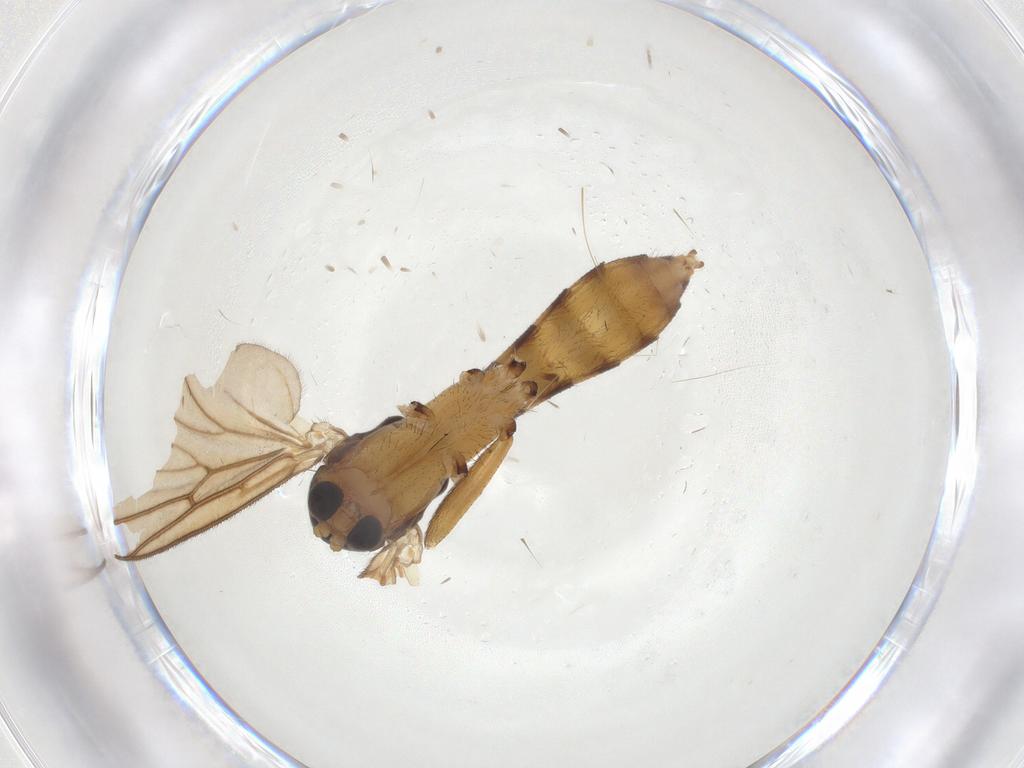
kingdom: Animalia
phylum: Arthropoda
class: Insecta
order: Diptera
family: Mycetophilidae
